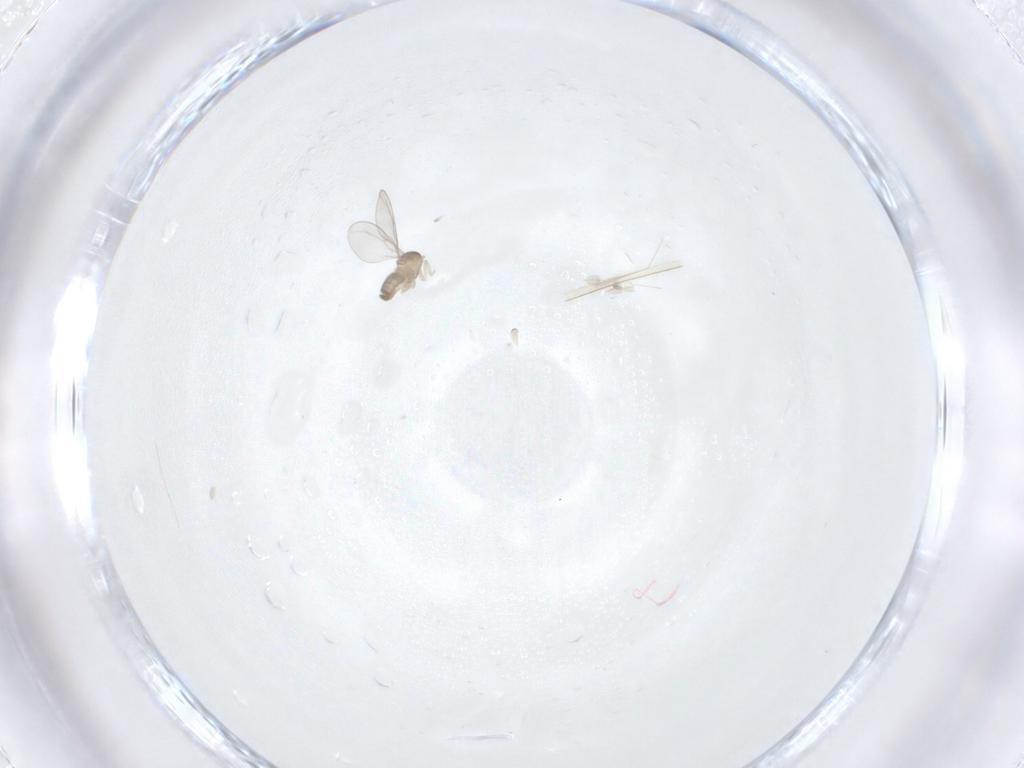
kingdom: Animalia
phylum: Arthropoda
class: Insecta
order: Diptera
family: Cecidomyiidae
